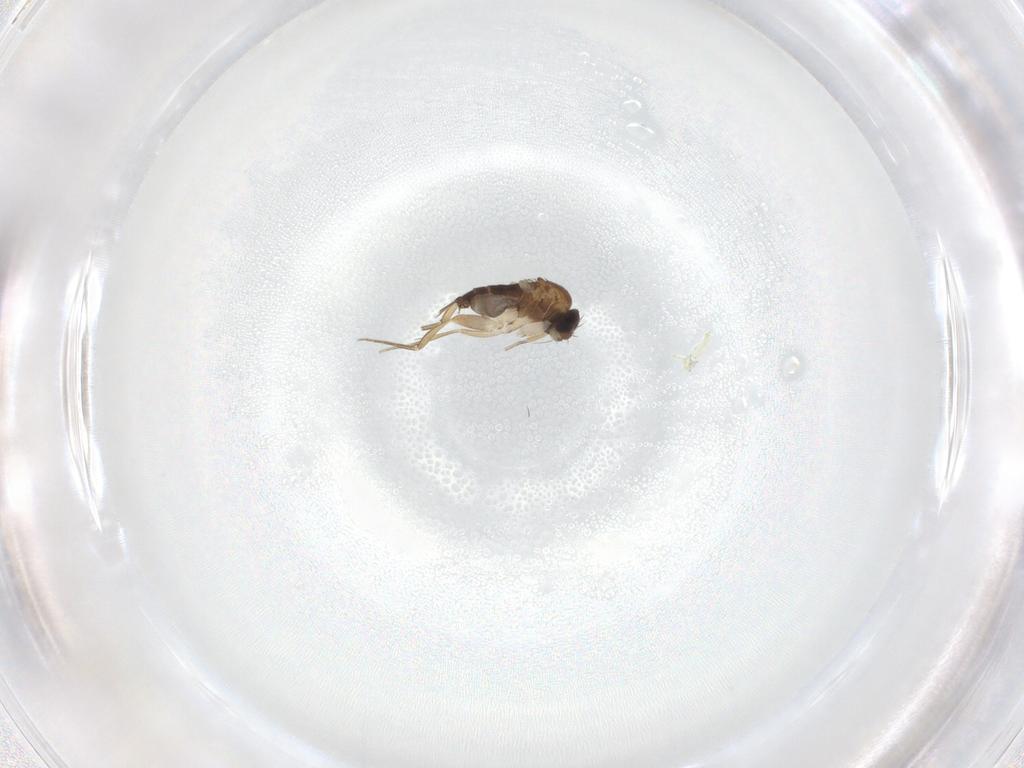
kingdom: Animalia
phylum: Arthropoda
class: Insecta
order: Diptera
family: Phoridae
